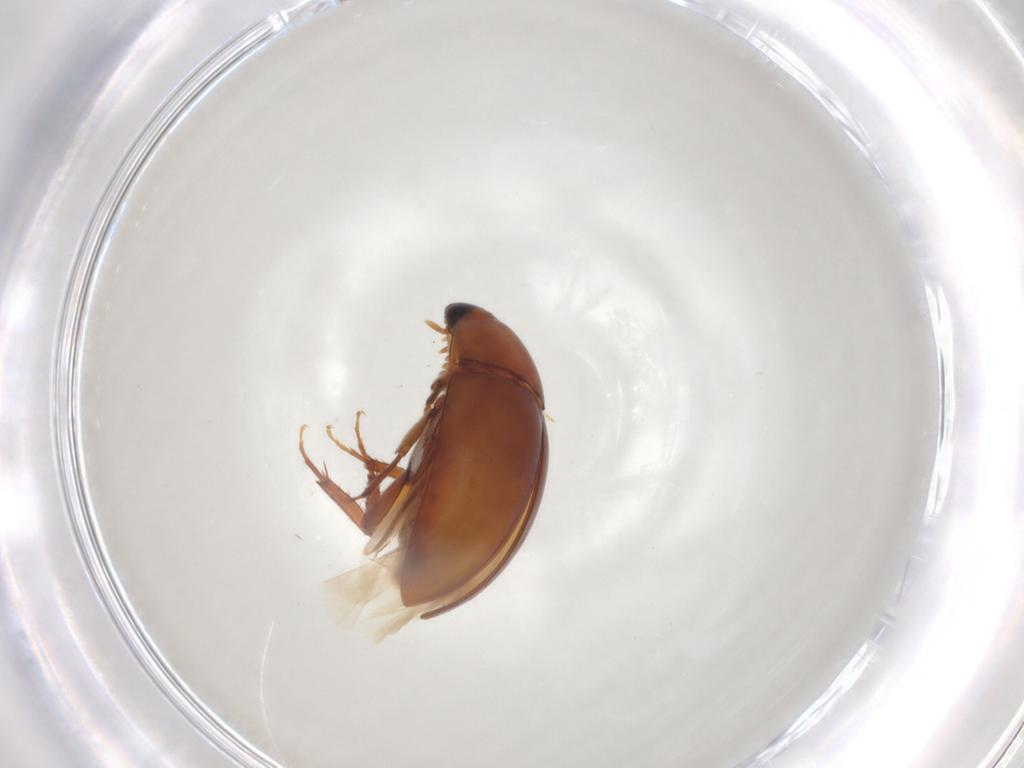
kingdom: Animalia
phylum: Arthropoda
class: Insecta
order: Coleoptera
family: Phalacridae
